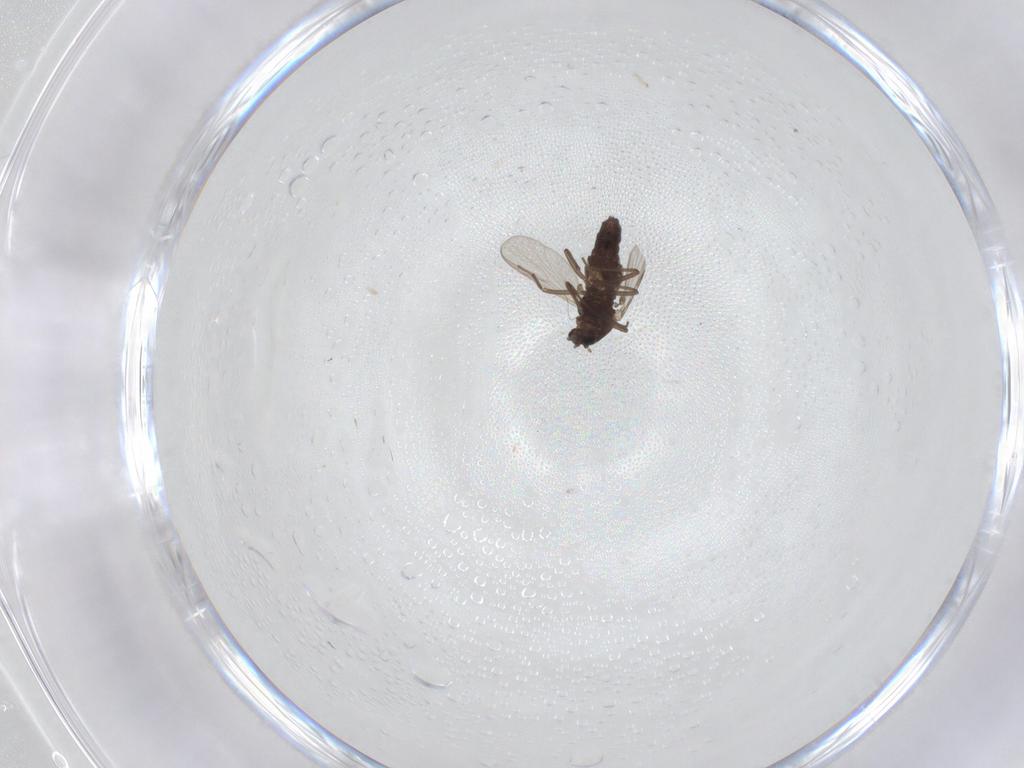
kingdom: Animalia
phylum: Arthropoda
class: Insecta
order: Diptera
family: Chironomidae
